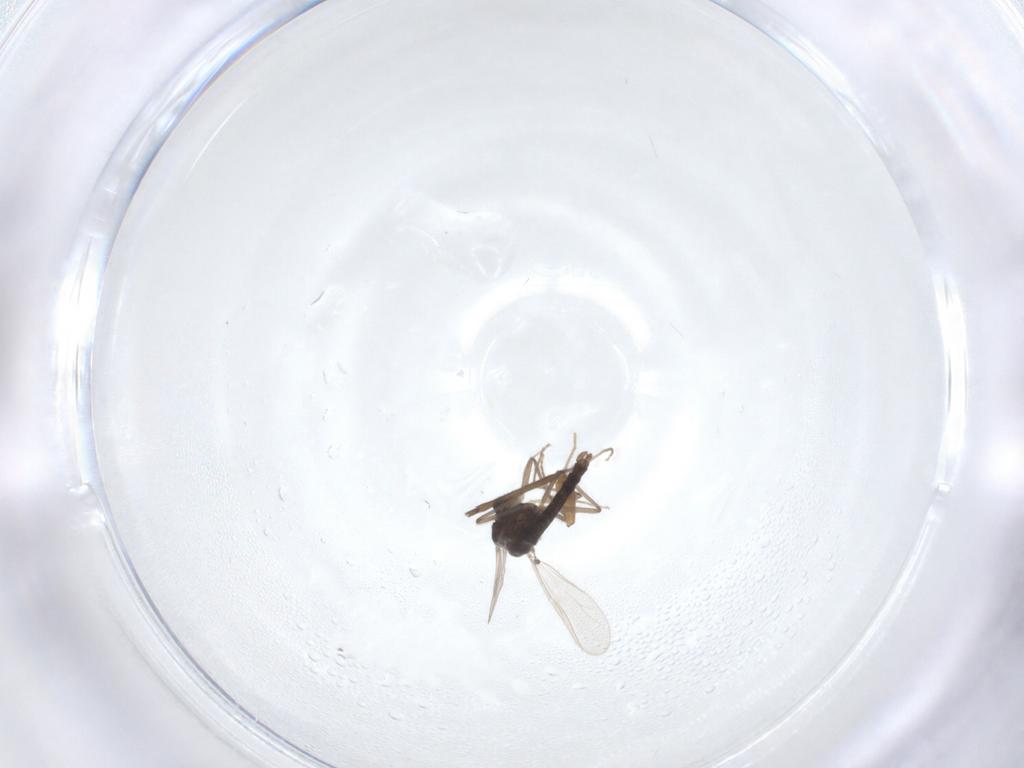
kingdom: Animalia
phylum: Arthropoda
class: Insecta
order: Diptera
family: Chironomidae
